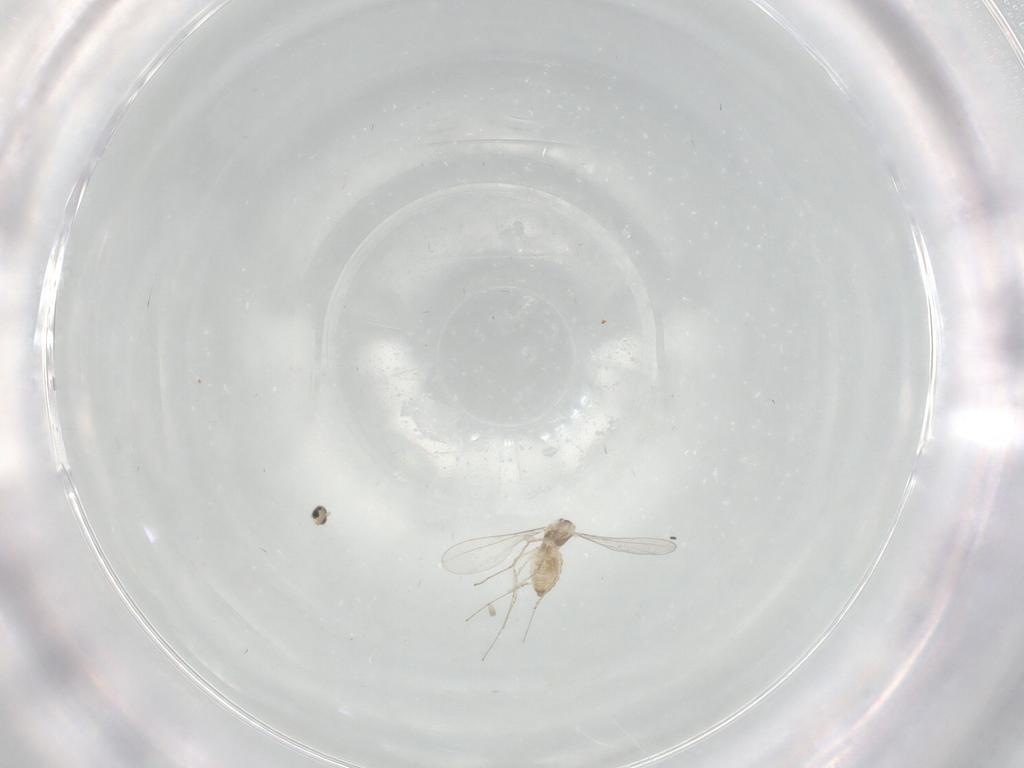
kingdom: Animalia
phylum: Arthropoda
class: Insecta
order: Diptera
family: Cecidomyiidae
